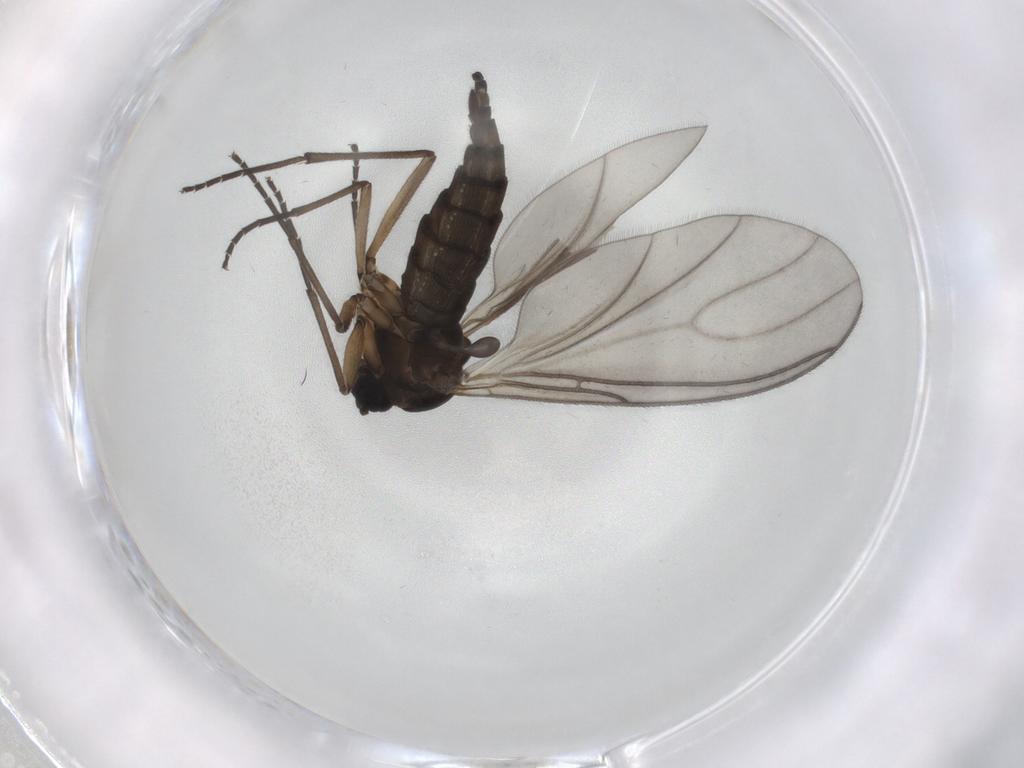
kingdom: Animalia
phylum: Arthropoda
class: Insecta
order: Diptera
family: Sciaridae
